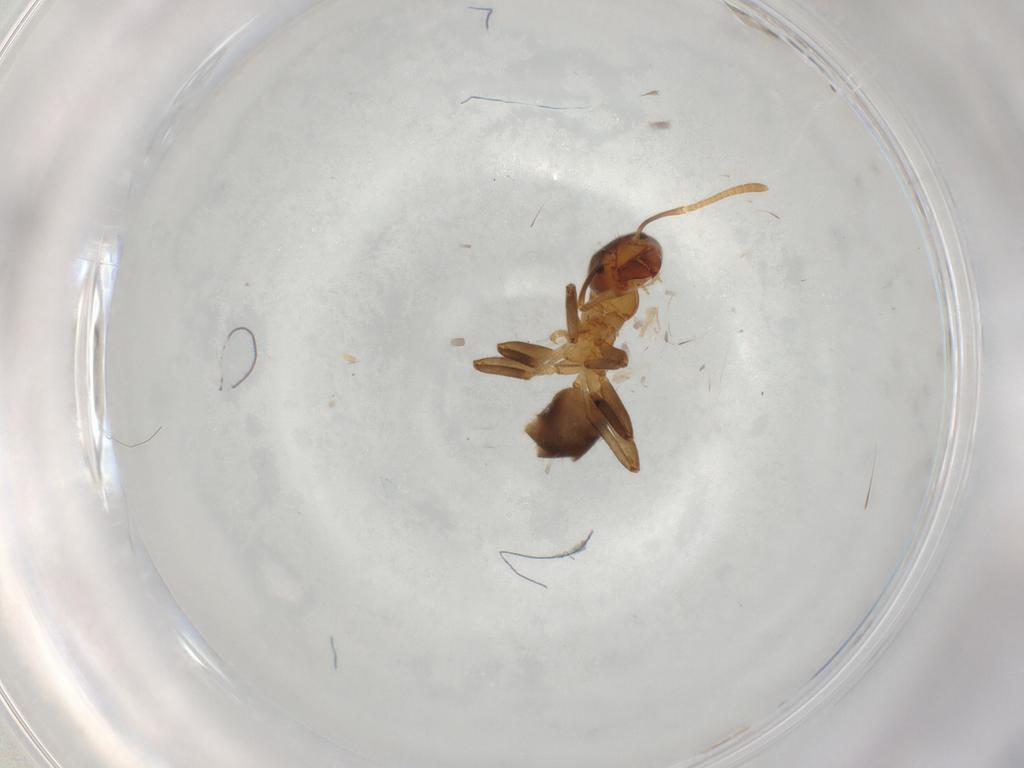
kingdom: Animalia
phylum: Arthropoda
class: Insecta
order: Hymenoptera
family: Formicidae
